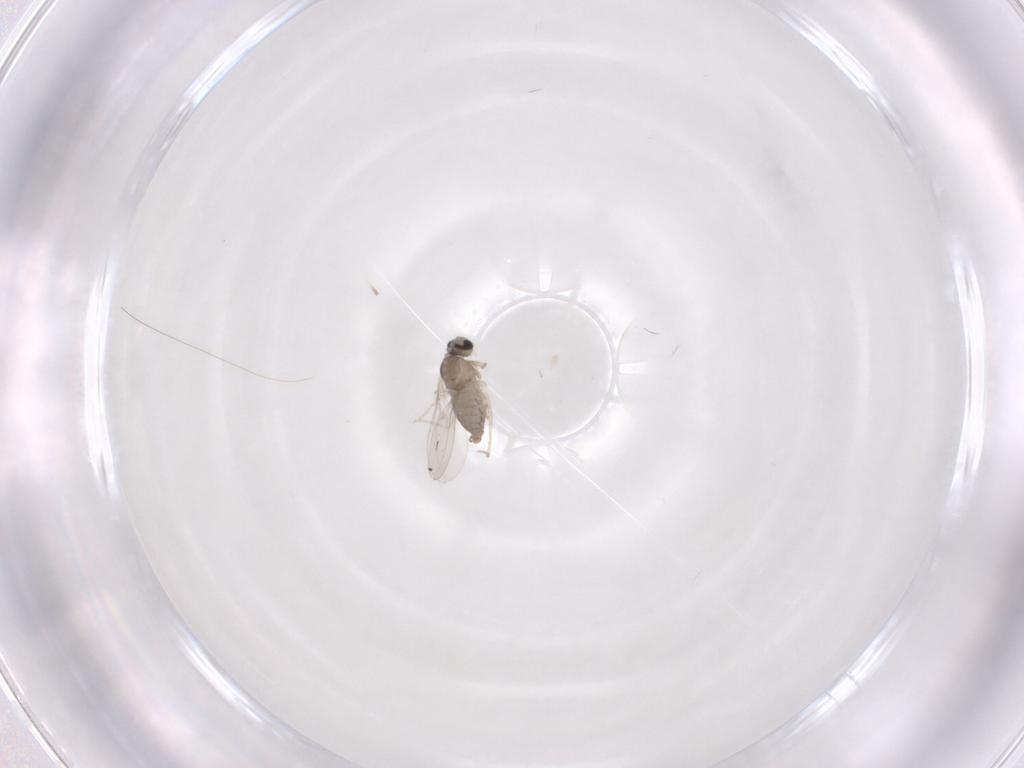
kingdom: Animalia
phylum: Arthropoda
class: Insecta
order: Diptera
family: Cecidomyiidae
